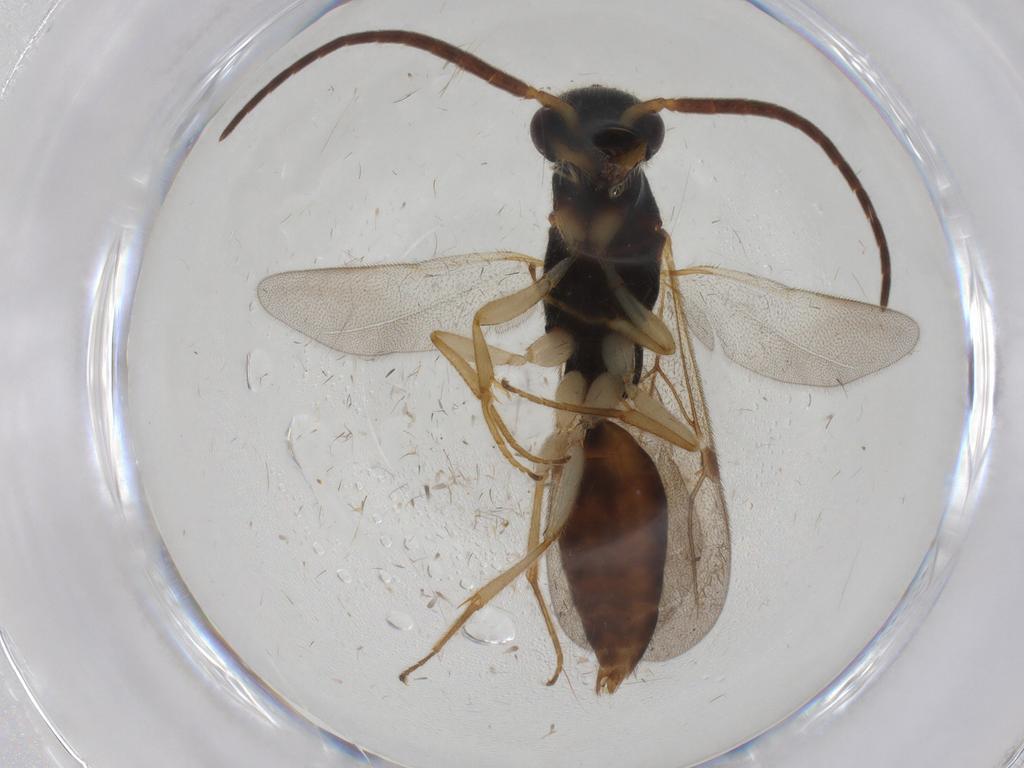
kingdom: Animalia
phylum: Arthropoda
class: Insecta
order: Hymenoptera
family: Bethylidae
